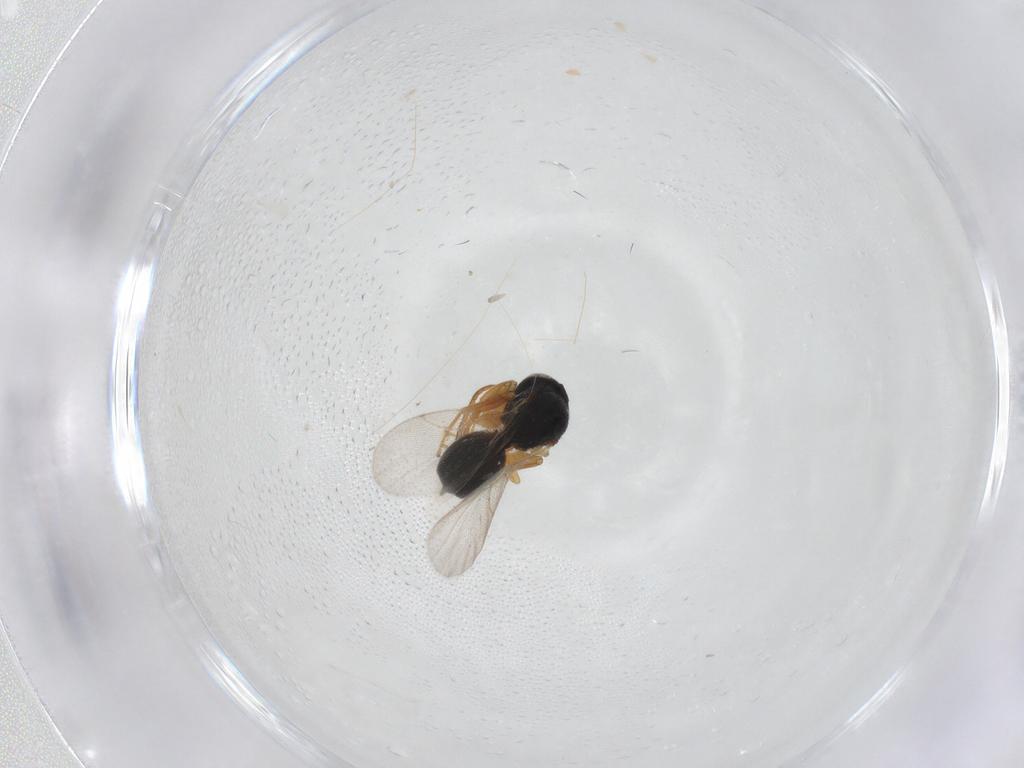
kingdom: Animalia
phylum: Arthropoda
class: Insecta
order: Hymenoptera
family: Cynipidae
